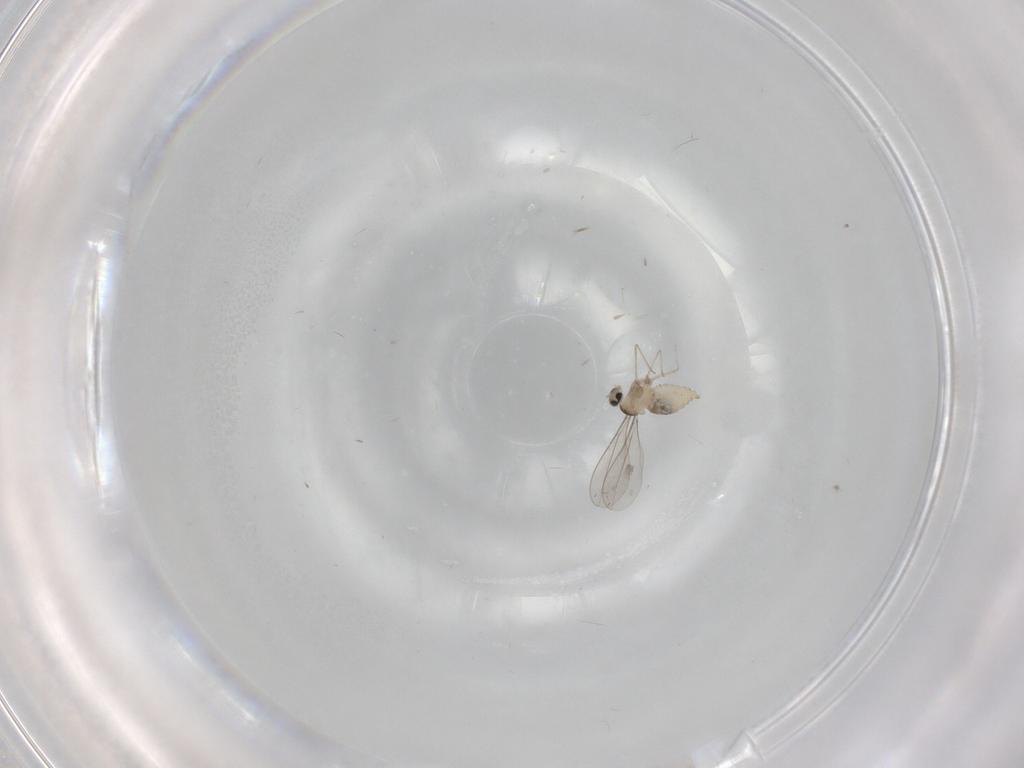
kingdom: Animalia
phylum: Arthropoda
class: Insecta
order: Diptera
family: Cecidomyiidae
